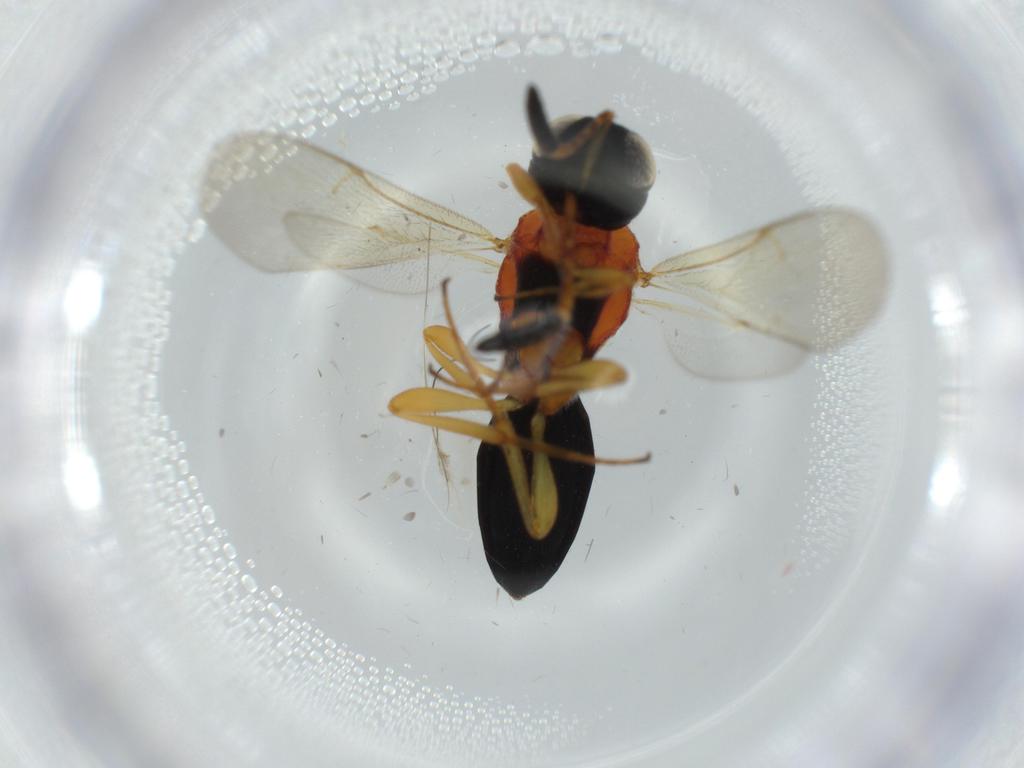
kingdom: Animalia
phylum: Arthropoda
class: Insecta
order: Hymenoptera
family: Scelionidae
